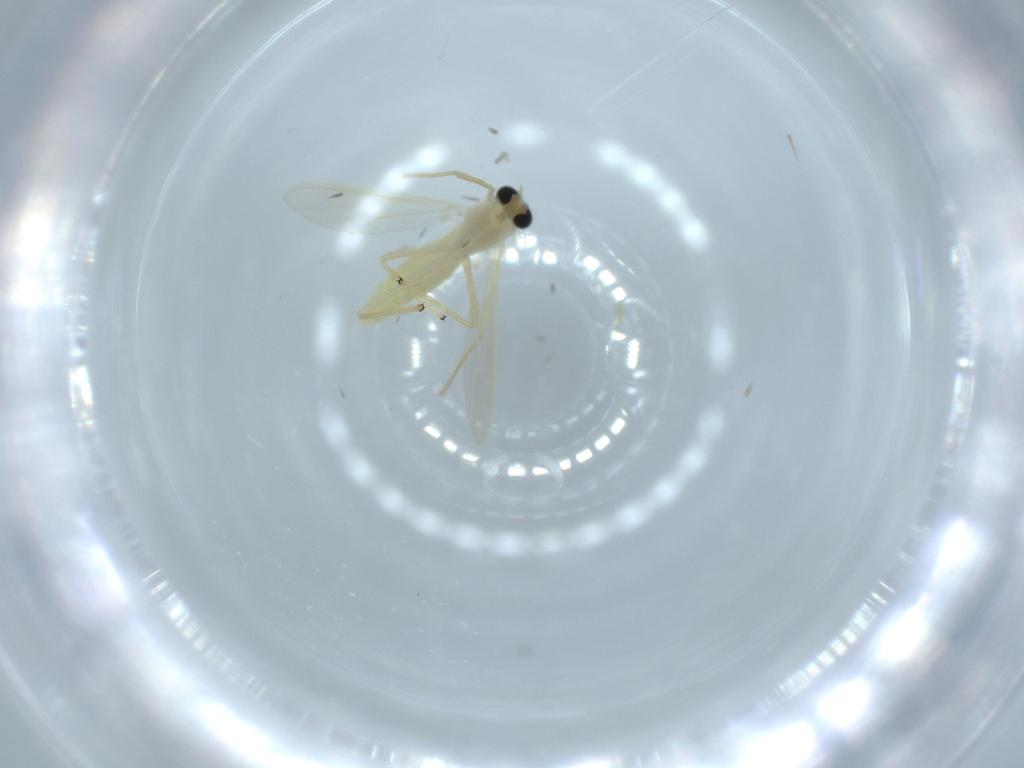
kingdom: Animalia
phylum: Arthropoda
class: Insecta
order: Diptera
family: Chironomidae
